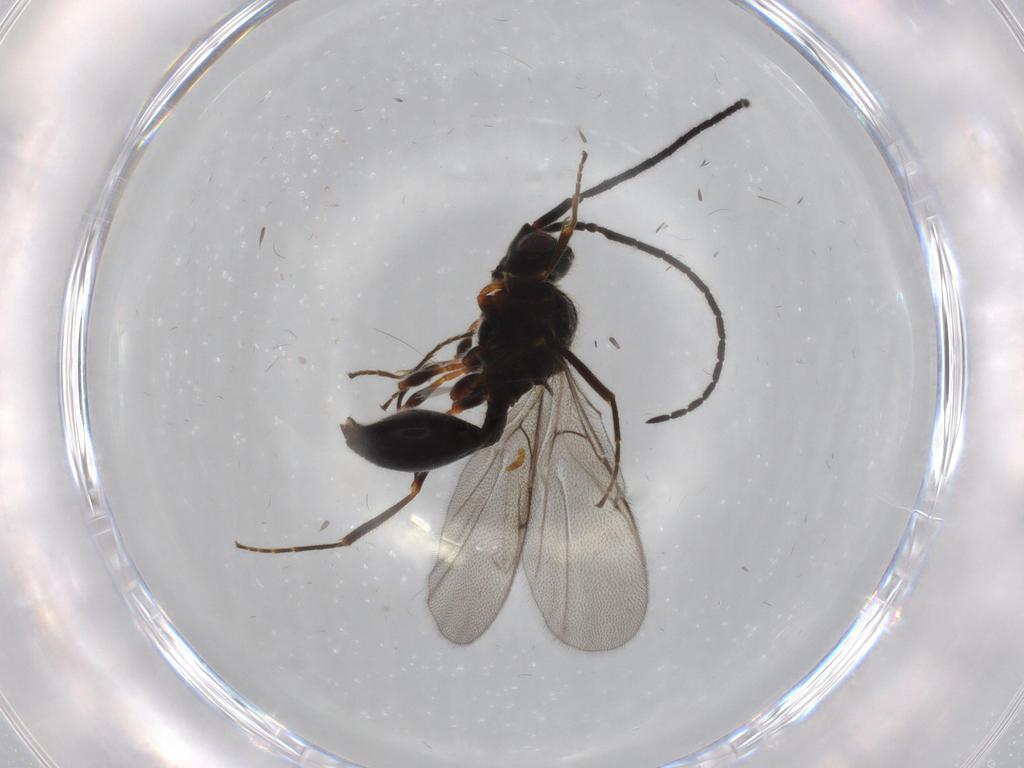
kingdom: Animalia
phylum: Arthropoda
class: Insecta
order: Hymenoptera
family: Diapriidae
